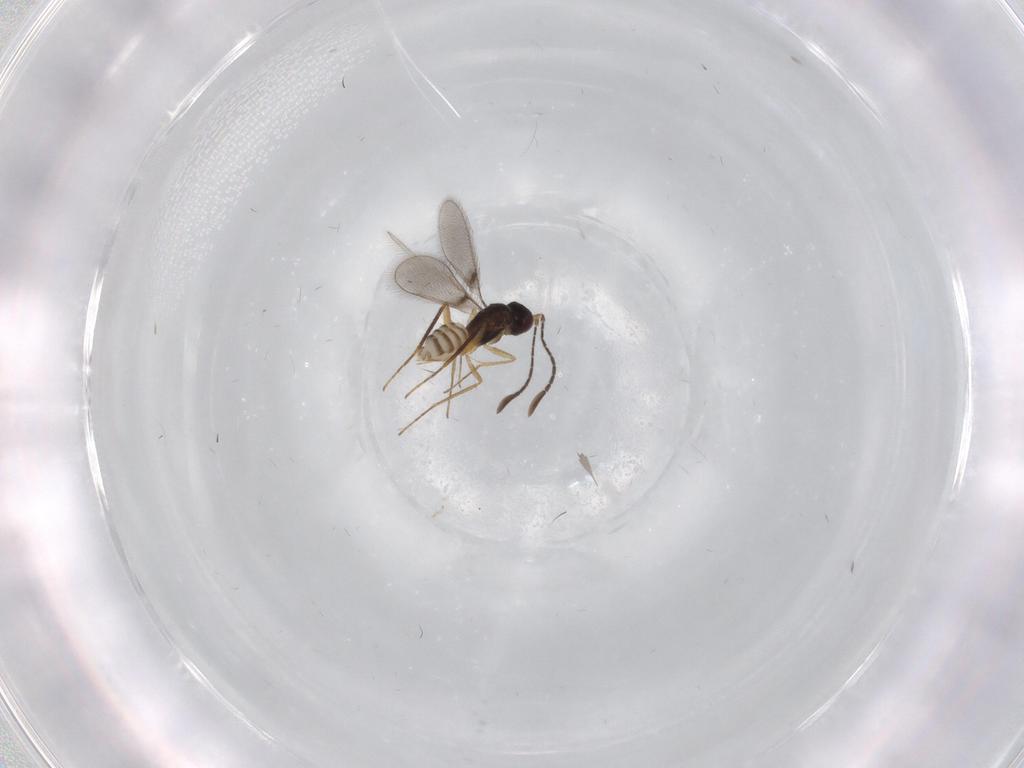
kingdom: Animalia
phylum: Arthropoda
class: Insecta
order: Hymenoptera
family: Mymaridae
